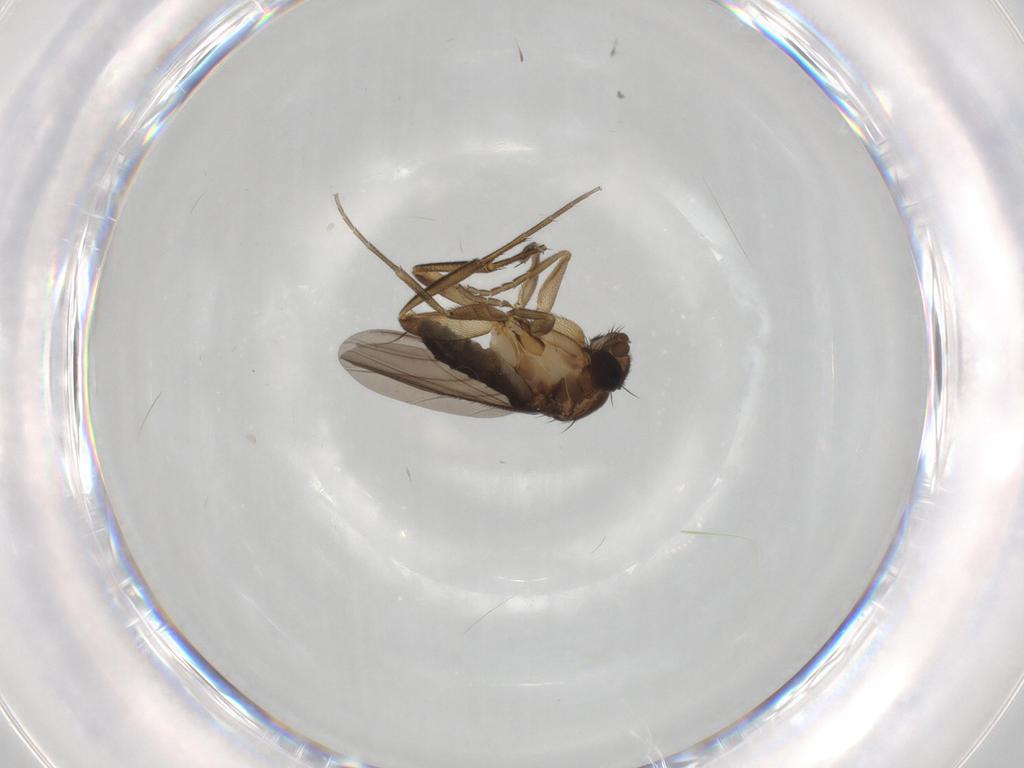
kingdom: Animalia
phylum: Arthropoda
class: Insecta
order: Diptera
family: Phoridae
